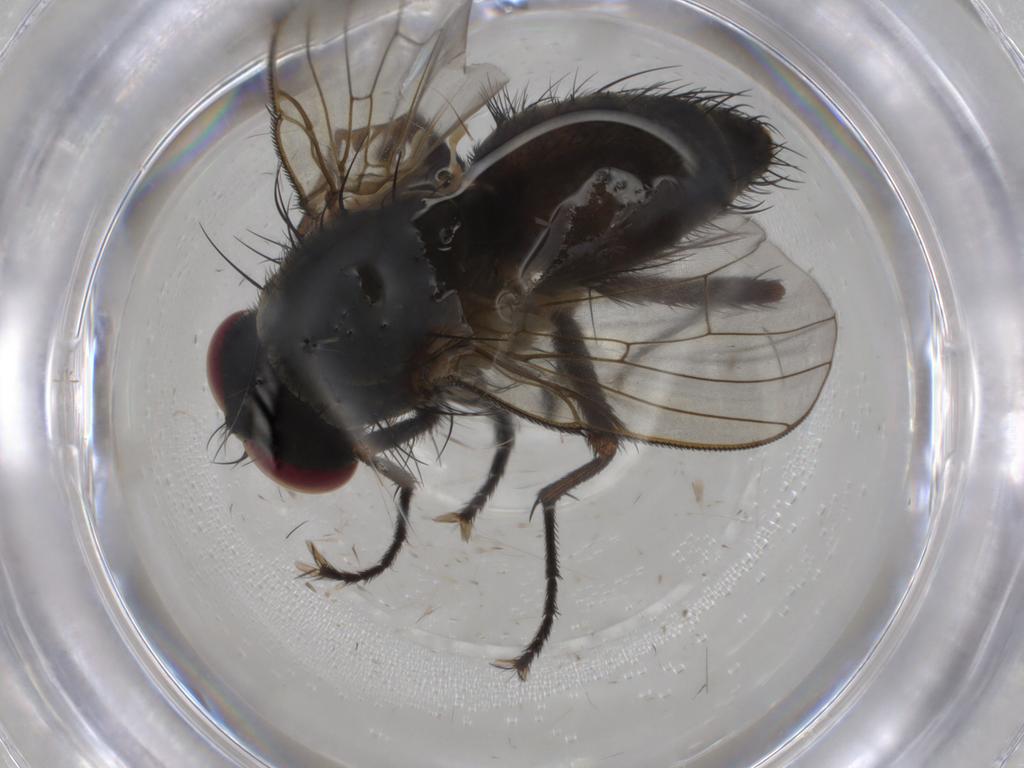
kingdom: Animalia
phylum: Arthropoda
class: Insecta
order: Diptera
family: Muscidae
